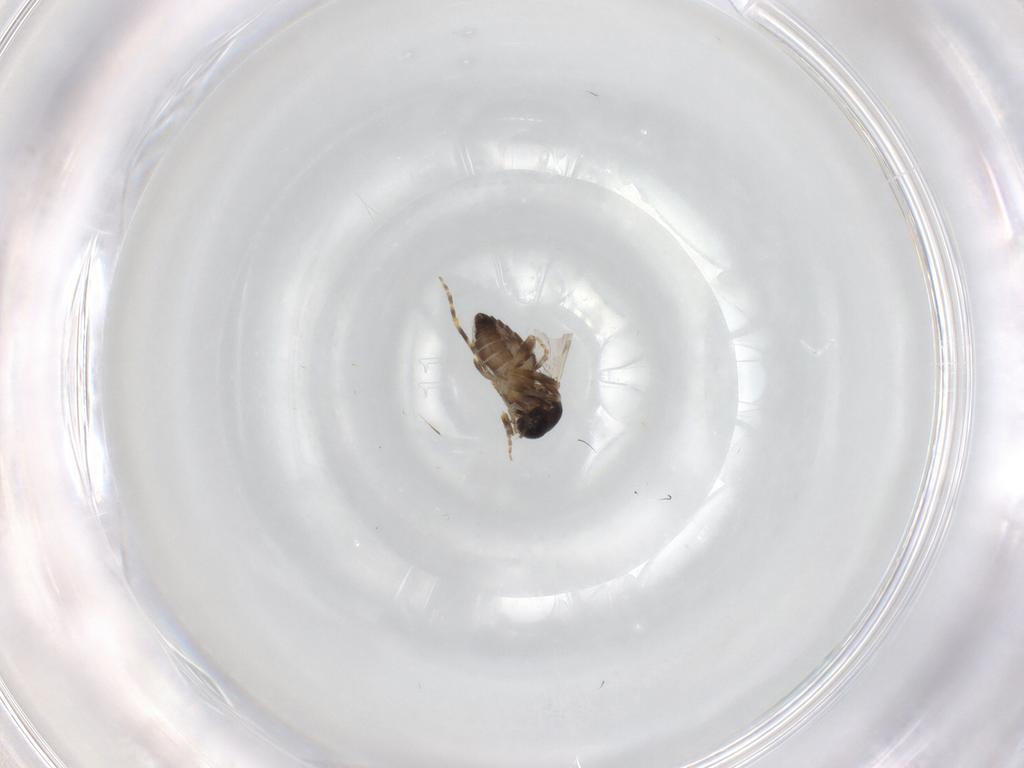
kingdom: Animalia
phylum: Arthropoda
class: Insecta
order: Diptera
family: Ceratopogonidae
